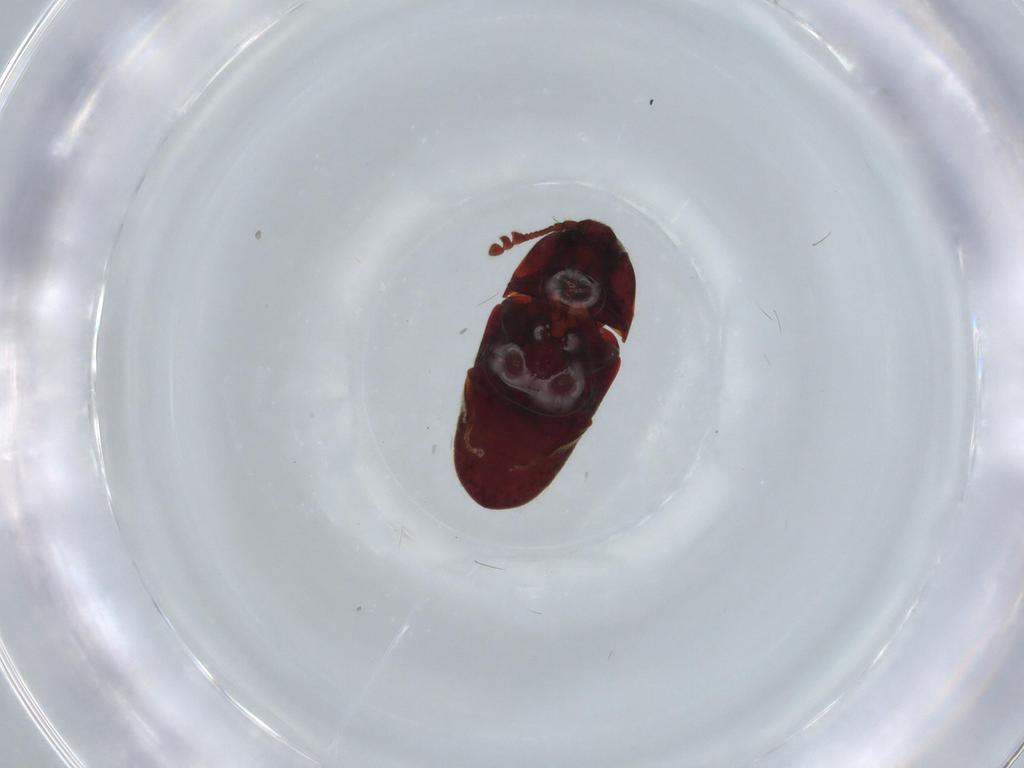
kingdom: Animalia
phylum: Arthropoda
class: Insecta
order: Coleoptera
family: Throscidae
